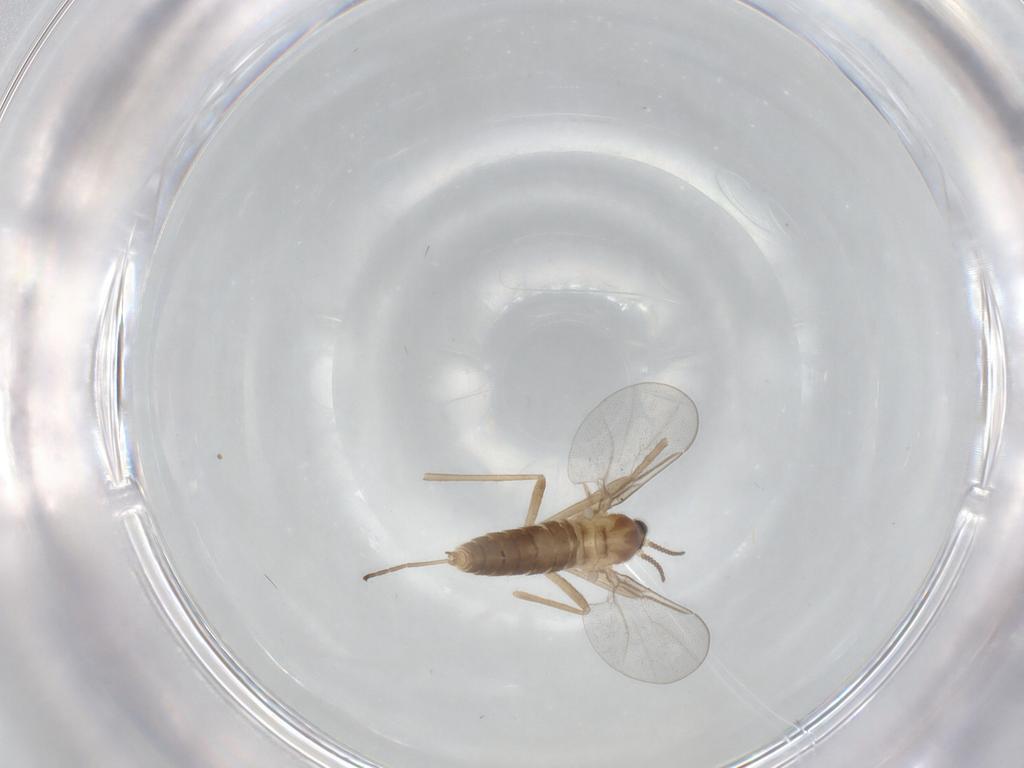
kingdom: Animalia
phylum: Arthropoda
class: Insecta
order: Diptera
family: Cecidomyiidae
